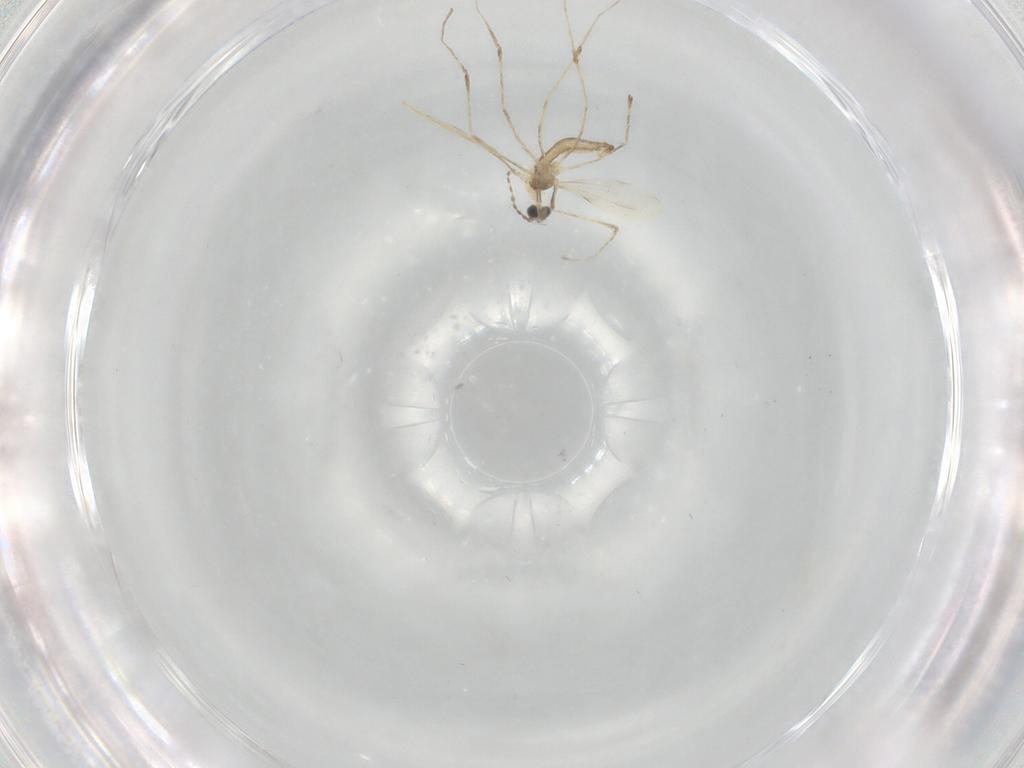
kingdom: Animalia
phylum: Arthropoda
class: Insecta
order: Diptera
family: Cecidomyiidae
